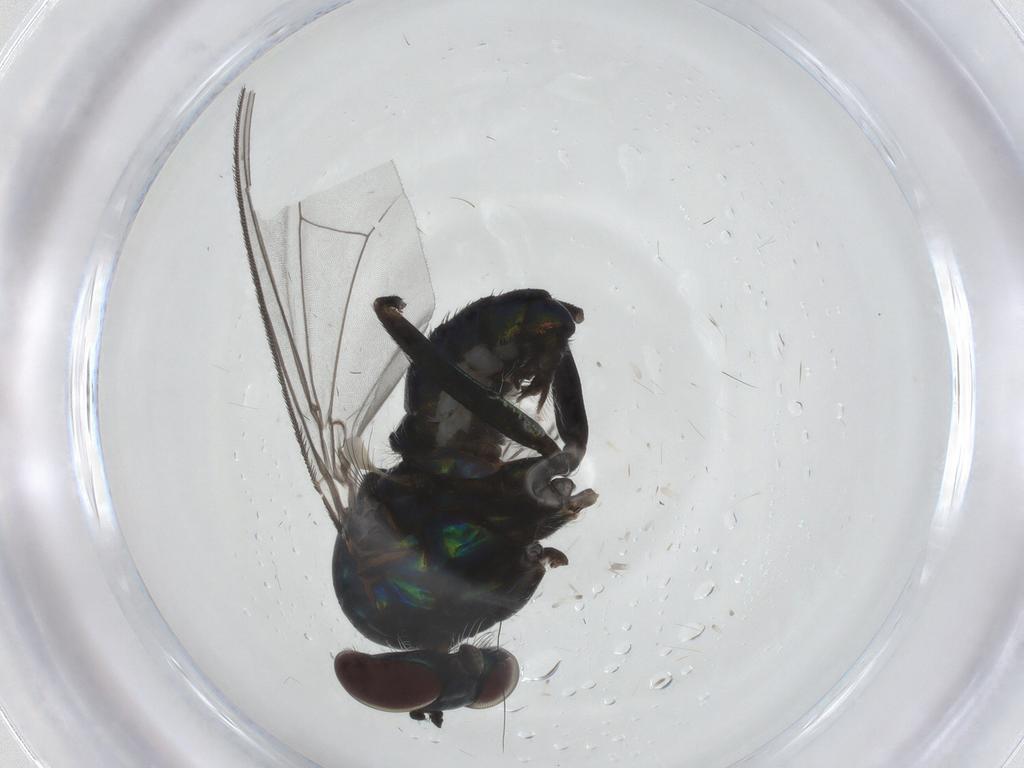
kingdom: Animalia
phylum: Arthropoda
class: Insecta
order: Diptera
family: Dolichopodidae
